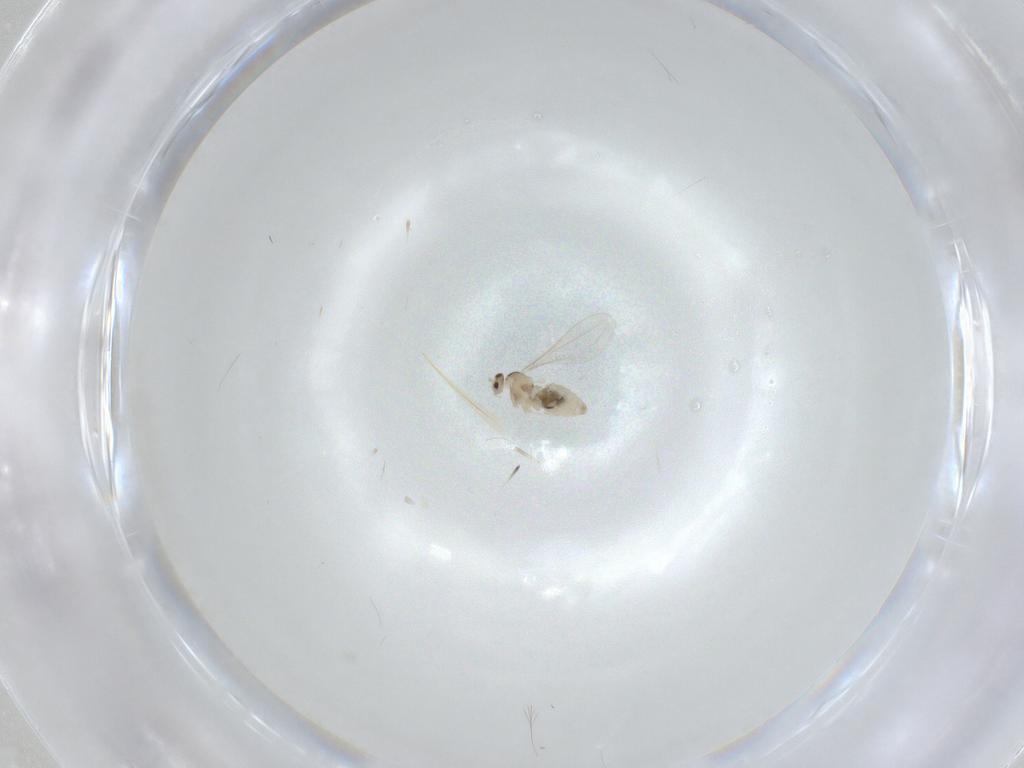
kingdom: Animalia
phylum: Arthropoda
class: Insecta
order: Diptera
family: Cecidomyiidae
